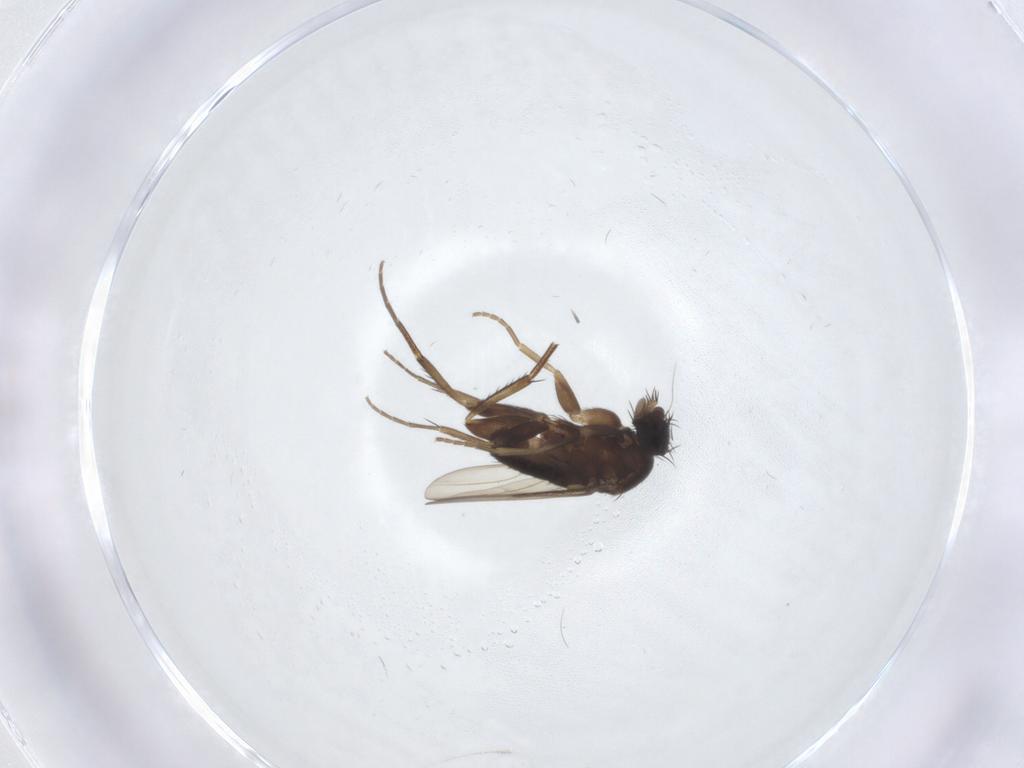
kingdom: Animalia
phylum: Arthropoda
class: Insecta
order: Diptera
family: Phoridae
